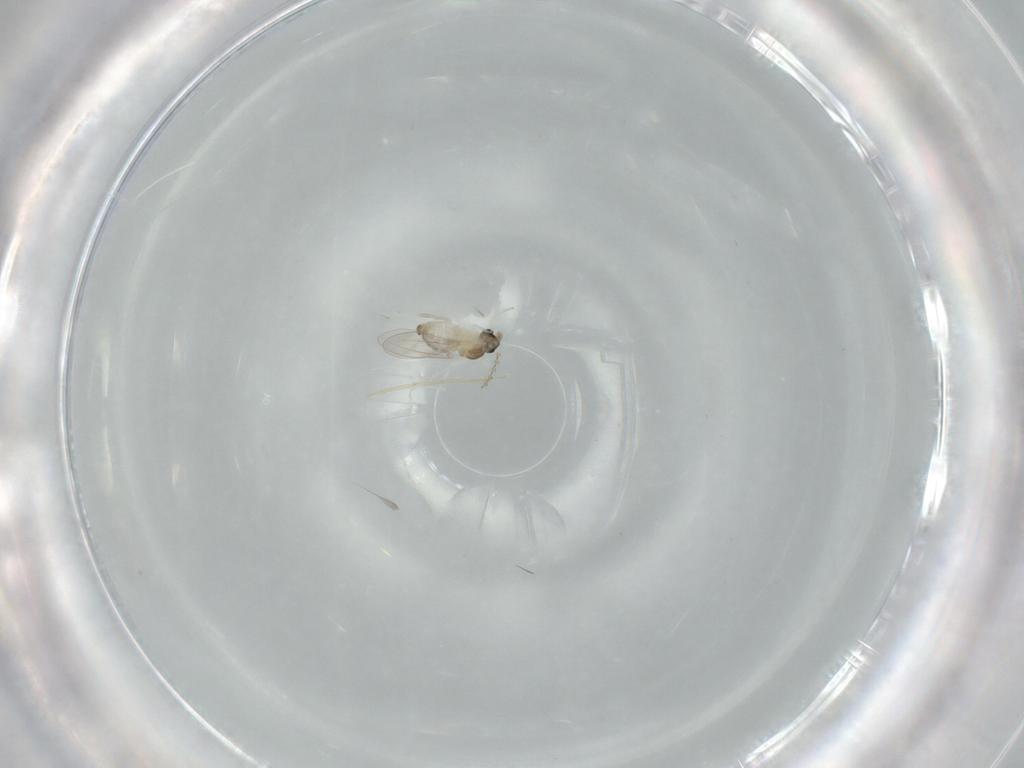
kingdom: Animalia
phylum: Arthropoda
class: Insecta
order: Diptera
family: Cecidomyiidae
